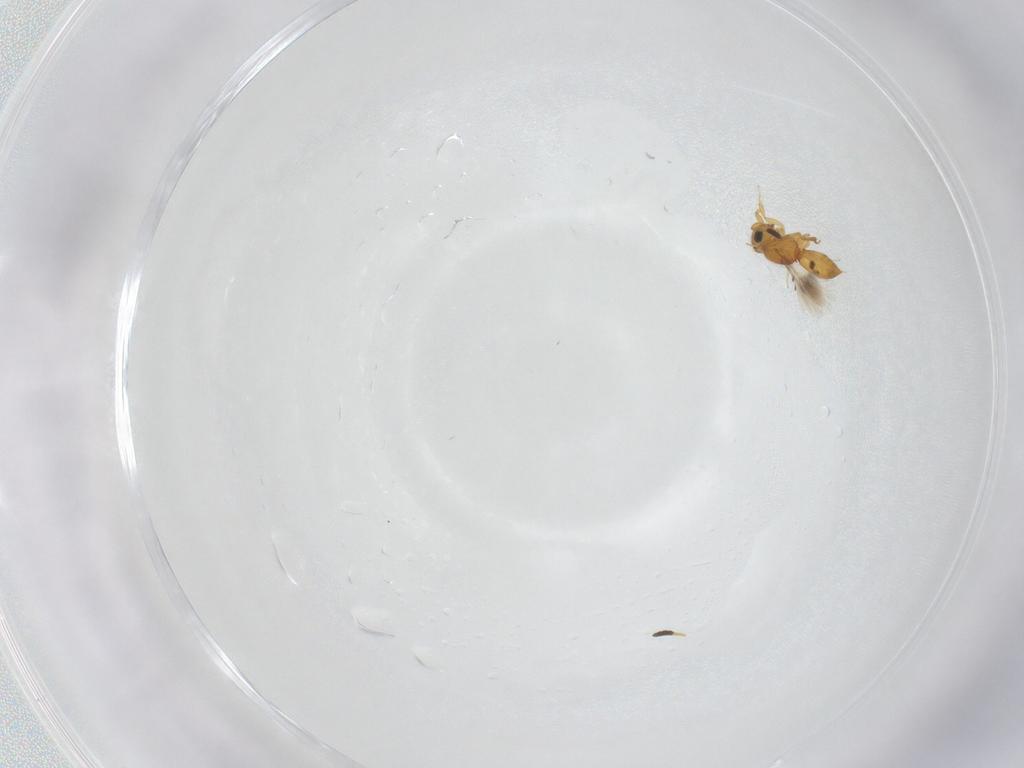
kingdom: Animalia
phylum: Arthropoda
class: Insecta
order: Hymenoptera
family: Scelionidae
